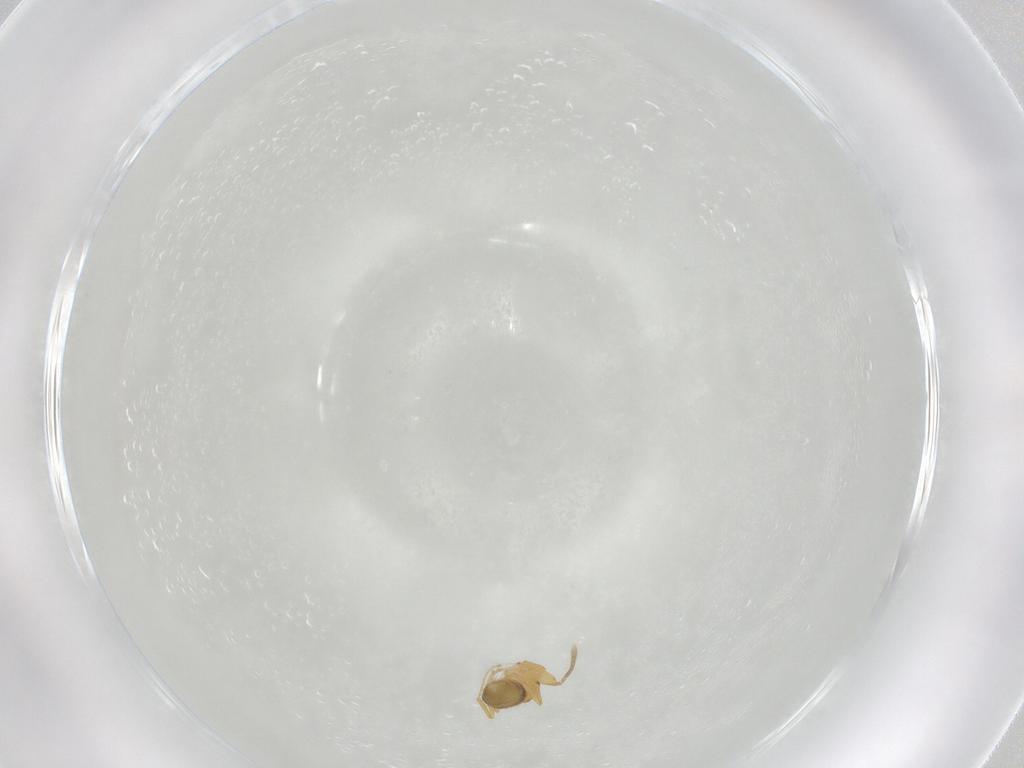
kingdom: Animalia
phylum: Arthropoda
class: Insecta
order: Hymenoptera
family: Formicidae
